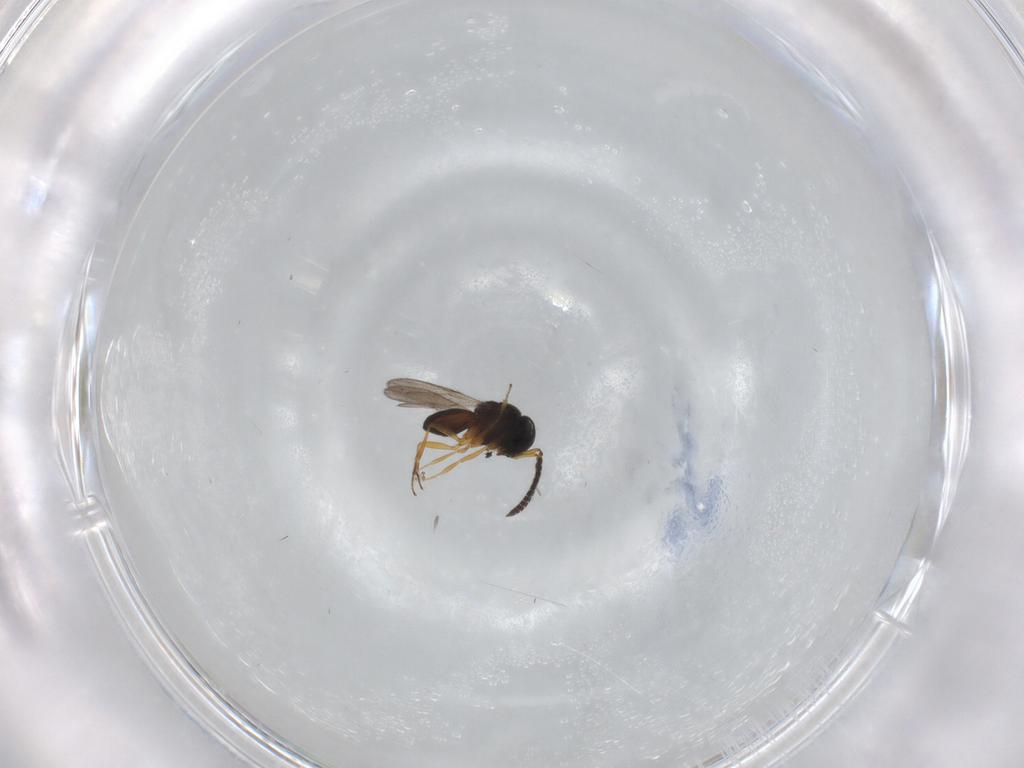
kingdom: Animalia
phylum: Arthropoda
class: Insecta
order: Hymenoptera
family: Scelionidae
